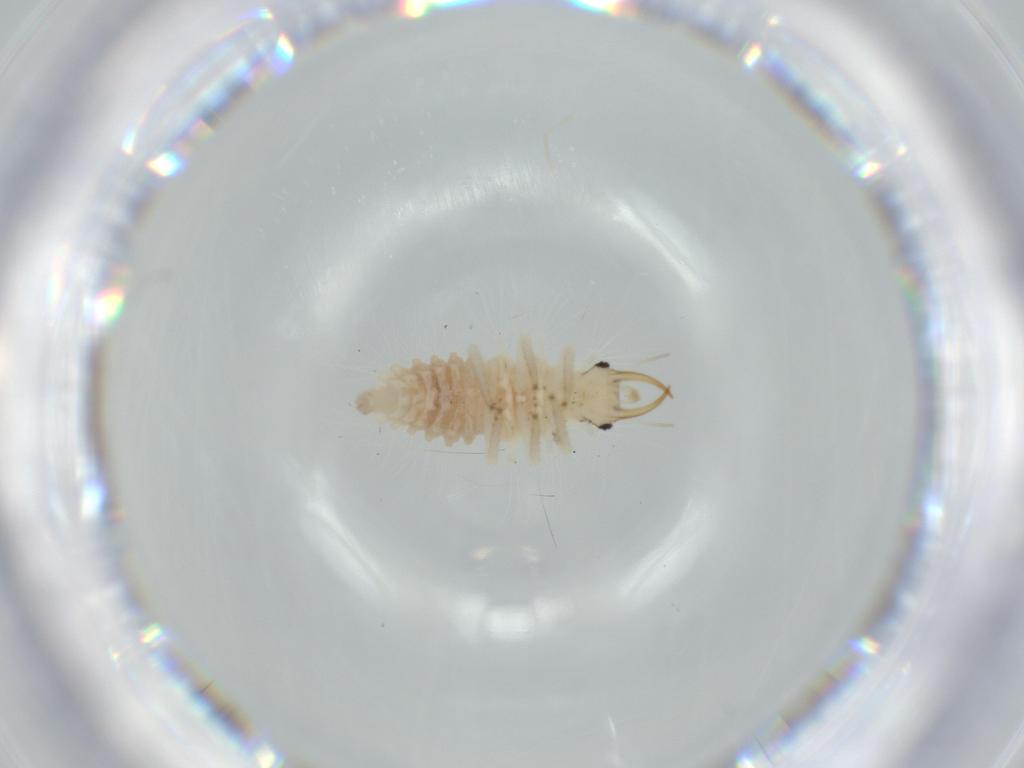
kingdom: Animalia
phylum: Arthropoda
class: Insecta
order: Neuroptera
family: Chrysopidae
